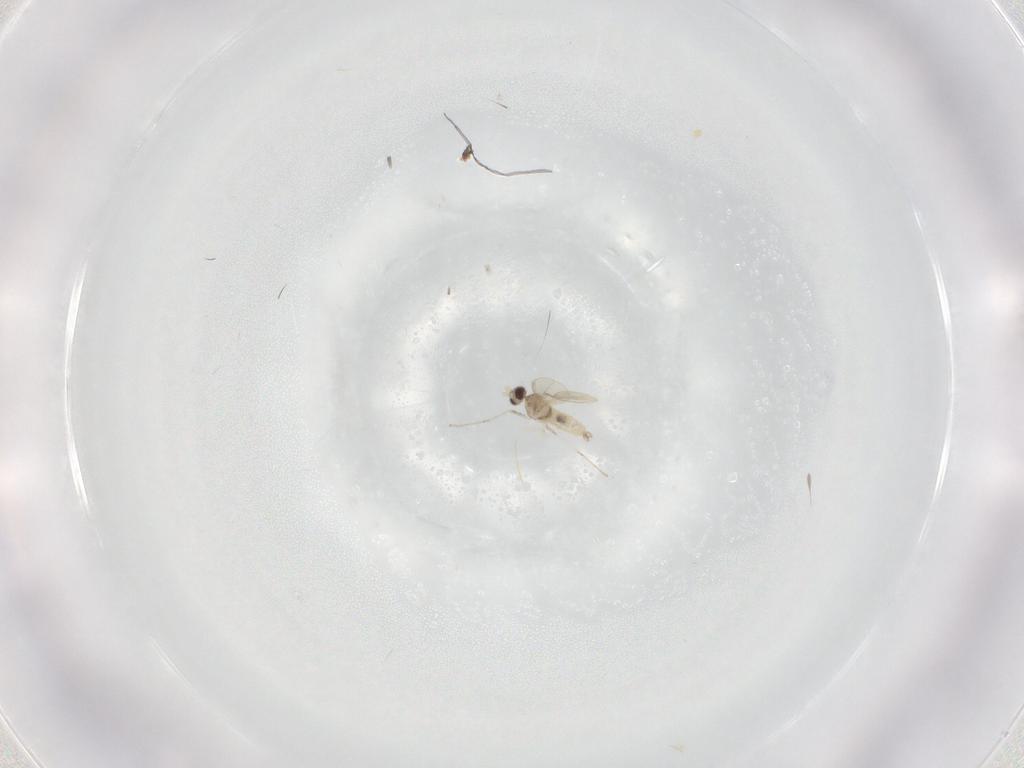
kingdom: Animalia
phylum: Arthropoda
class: Insecta
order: Diptera
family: Cecidomyiidae
